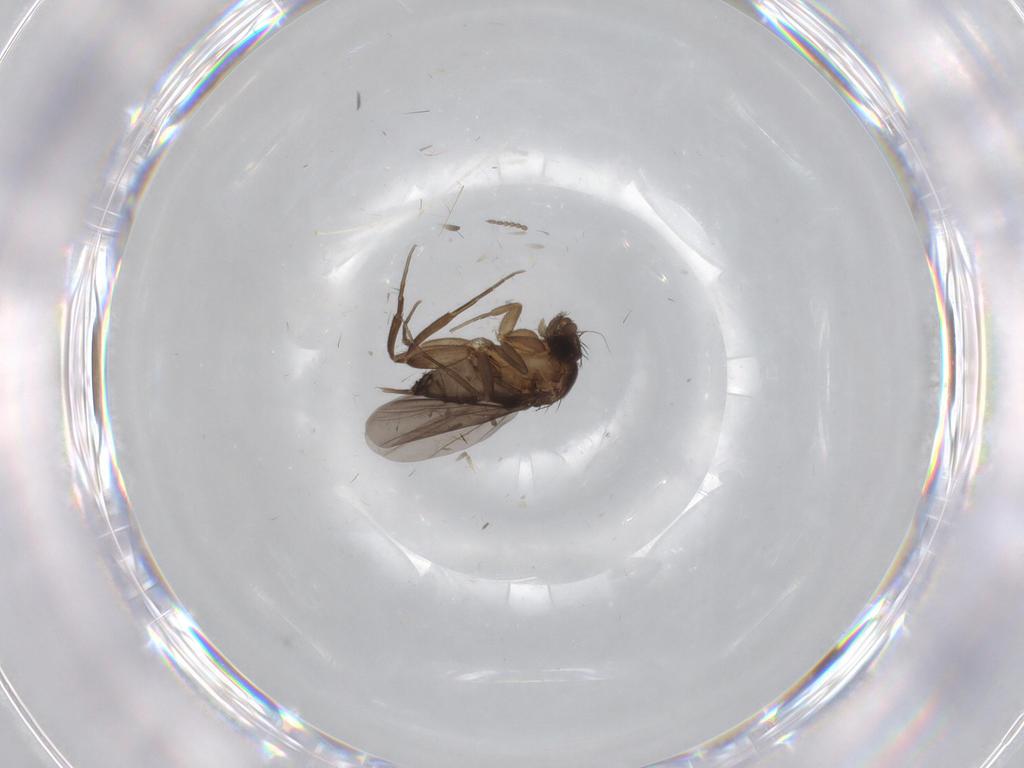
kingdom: Animalia
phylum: Arthropoda
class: Insecta
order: Diptera
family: Phoridae
